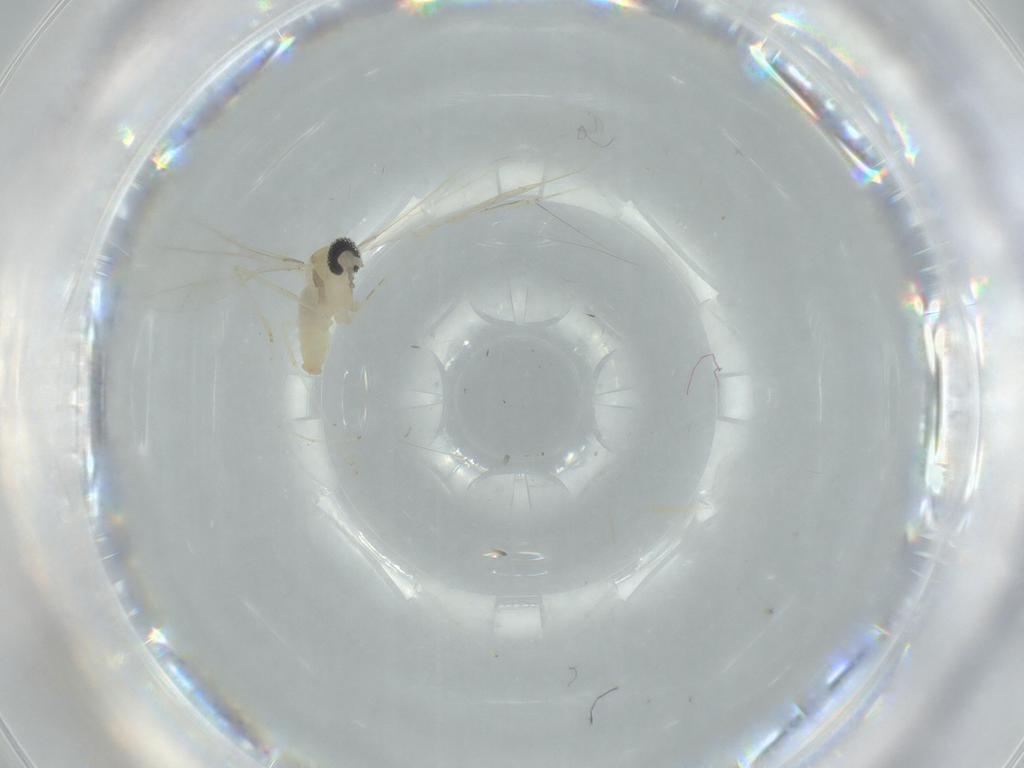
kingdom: Animalia
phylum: Arthropoda
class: Insecta
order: Diptera
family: Cecidomyiidae
